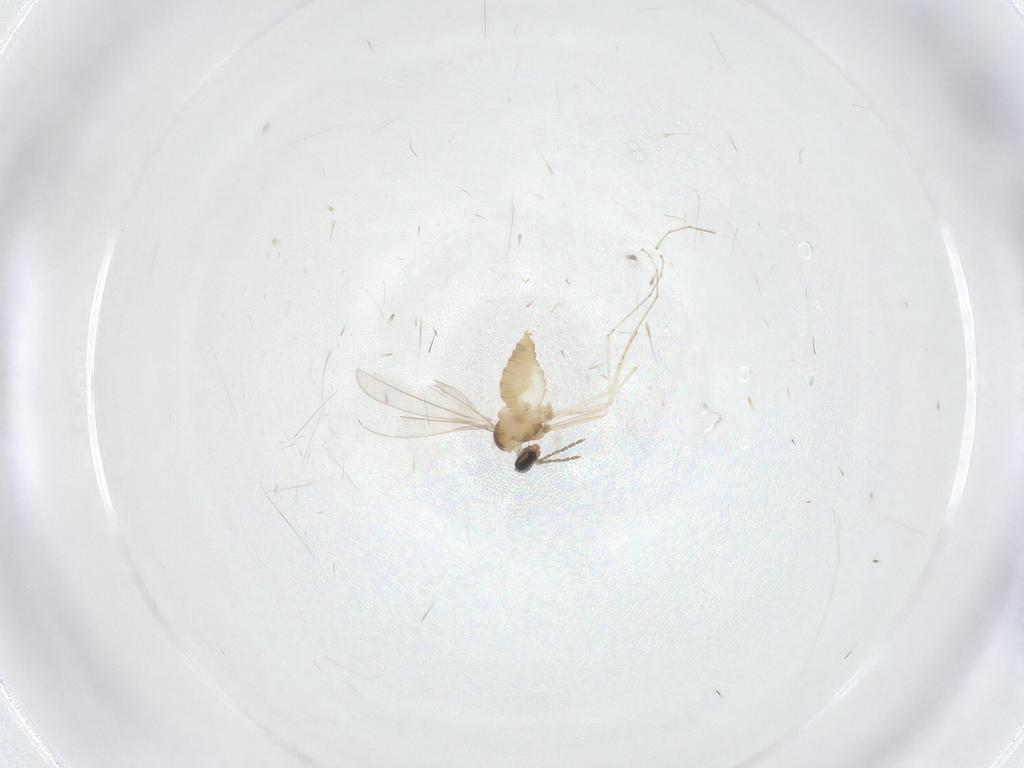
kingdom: Animalia
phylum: Arthropoda
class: Insecta
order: Diptera
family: Cecidomyiidae
